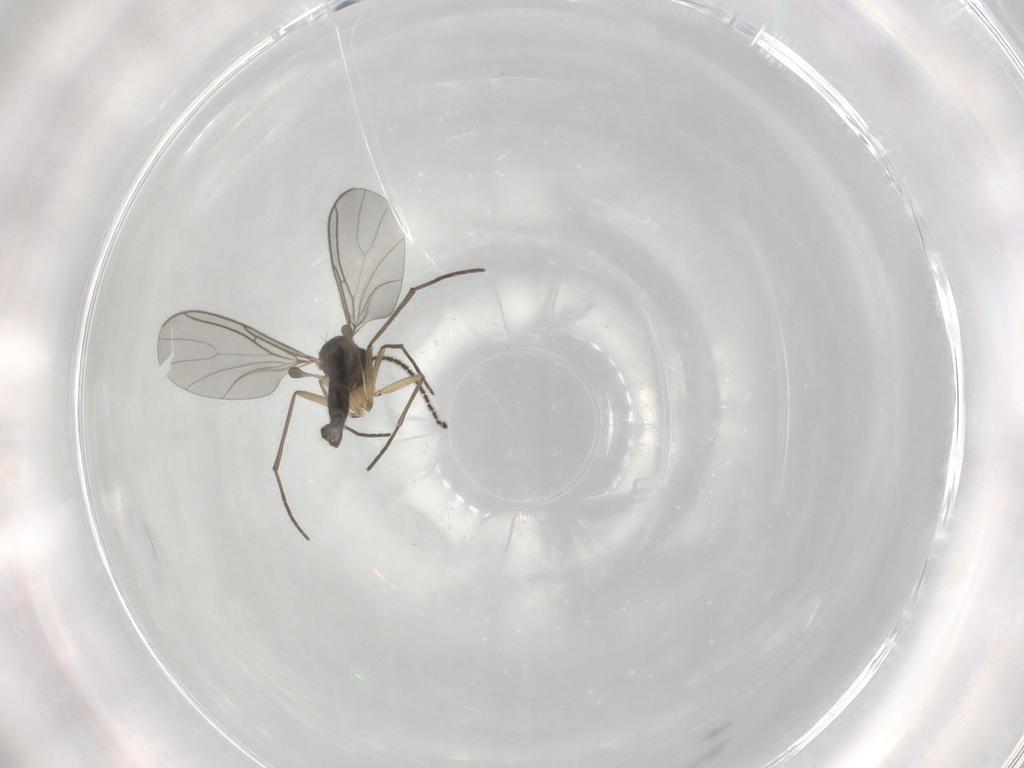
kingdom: Animalia
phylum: Arthropoda
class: Insecta
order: Diptera
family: Sciaridae
